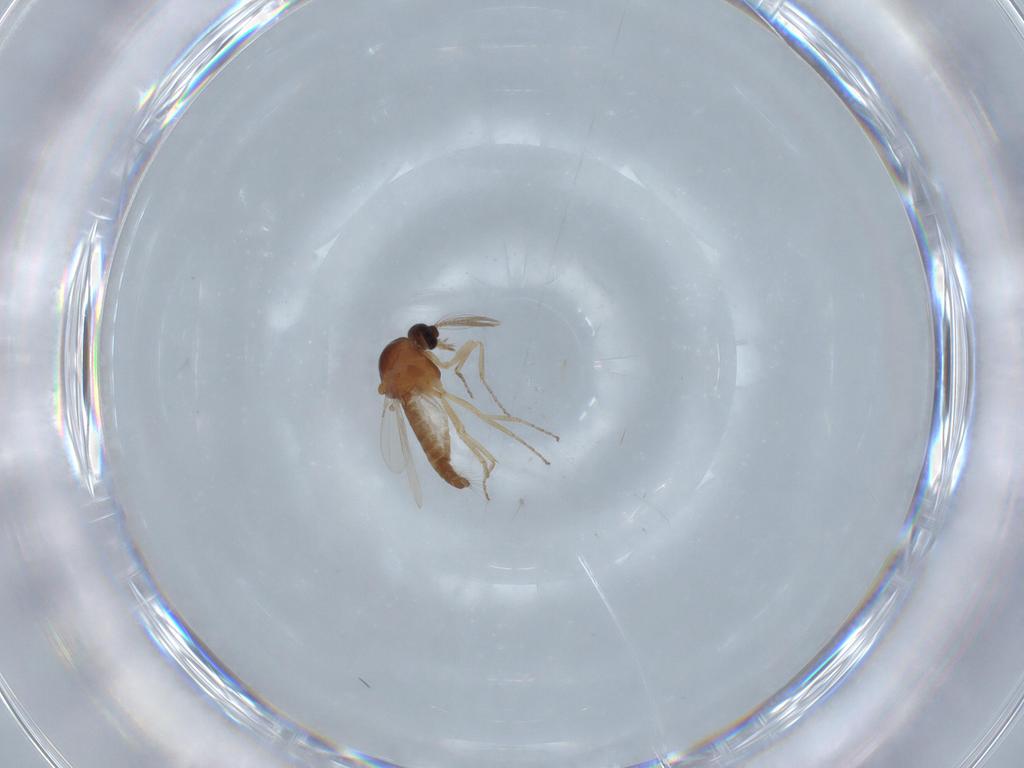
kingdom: Animalia
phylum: Arthropoda
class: Insecta
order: Diptera
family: Ceratopogonidae
